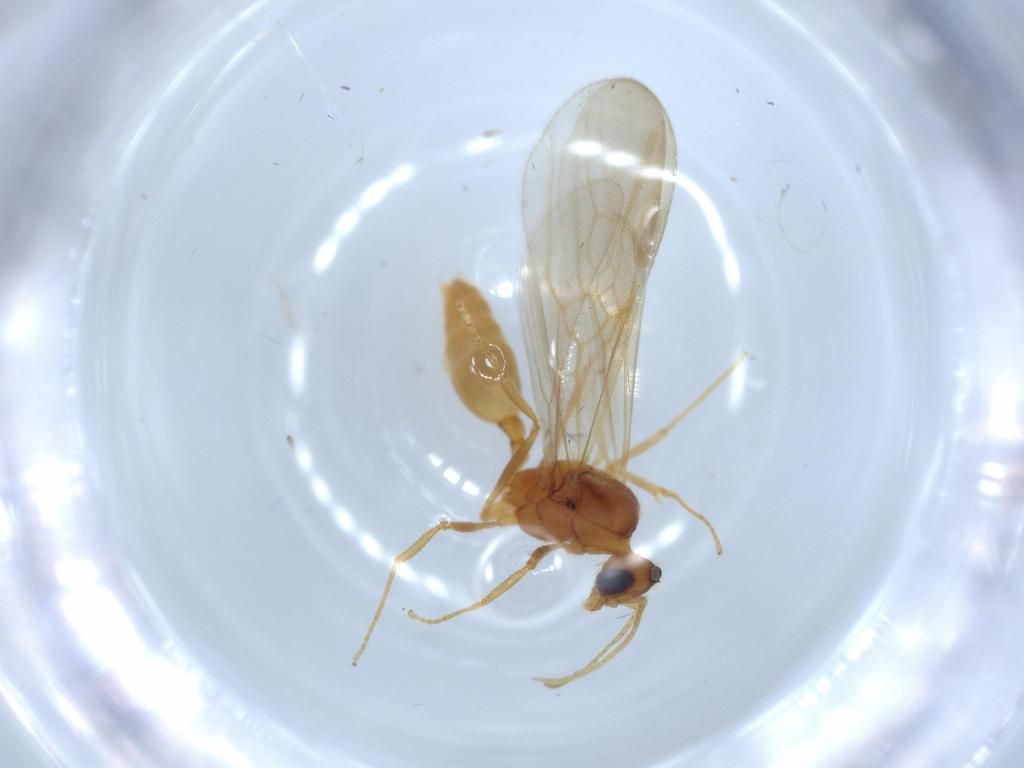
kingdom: Animalia
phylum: Arthropoda
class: Insecta
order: Hymenoptera
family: Formicidae
